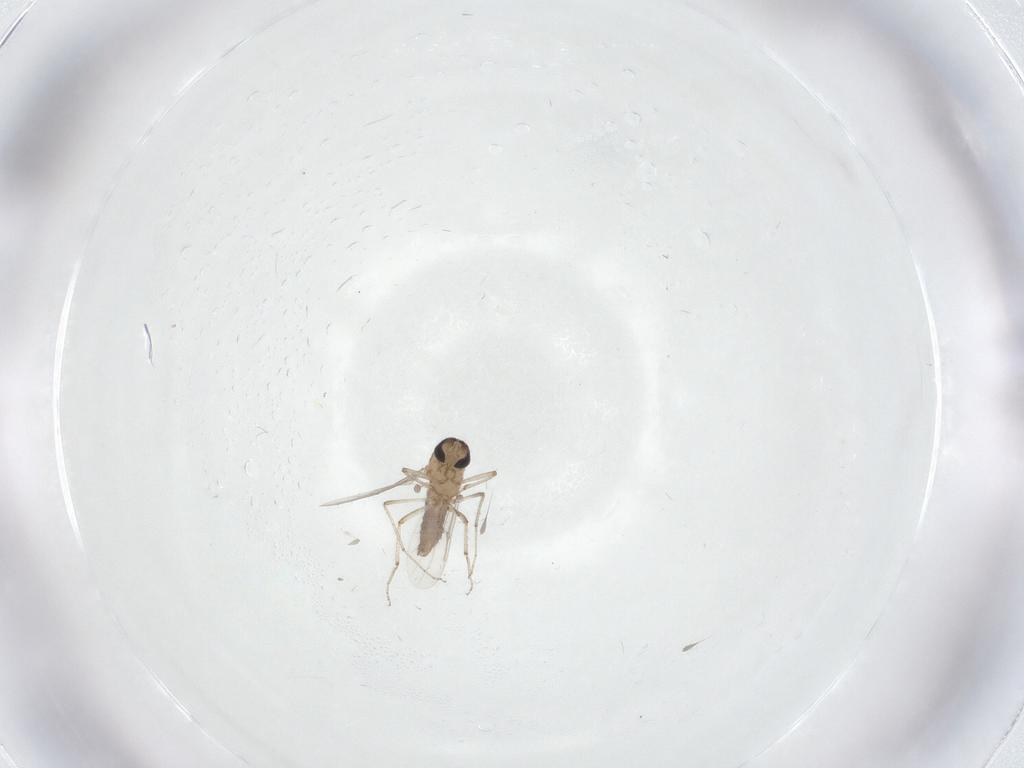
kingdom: Animalia
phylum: Arthropoda
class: Insecta
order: Diptera
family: Ceratopogonidae
